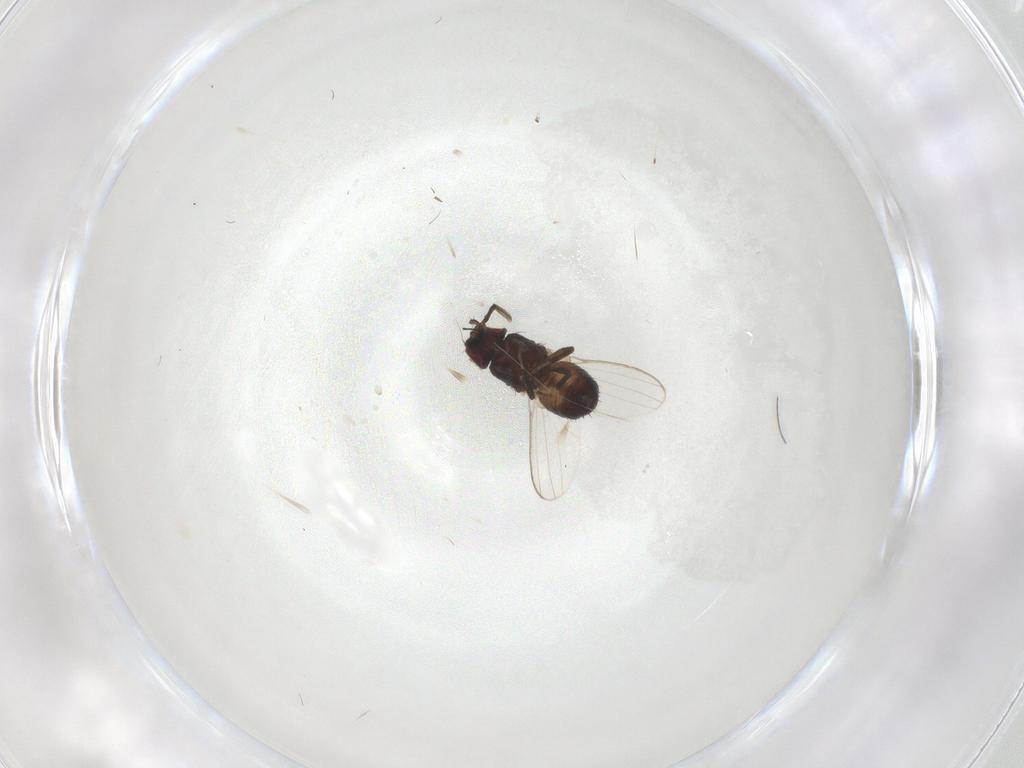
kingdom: Animalia
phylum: Arthropoda
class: Insecta
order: Diptera
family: Milichiidae
